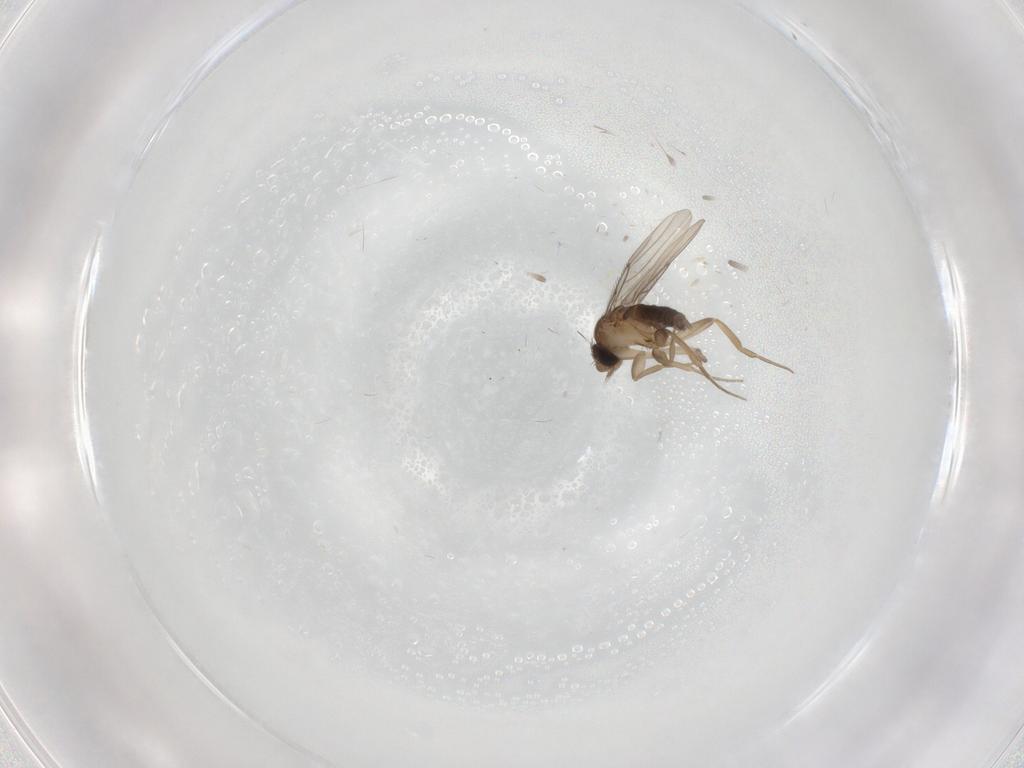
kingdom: Animalia
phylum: Arthropoda
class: Insecta
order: Diptera
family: Phoridae
